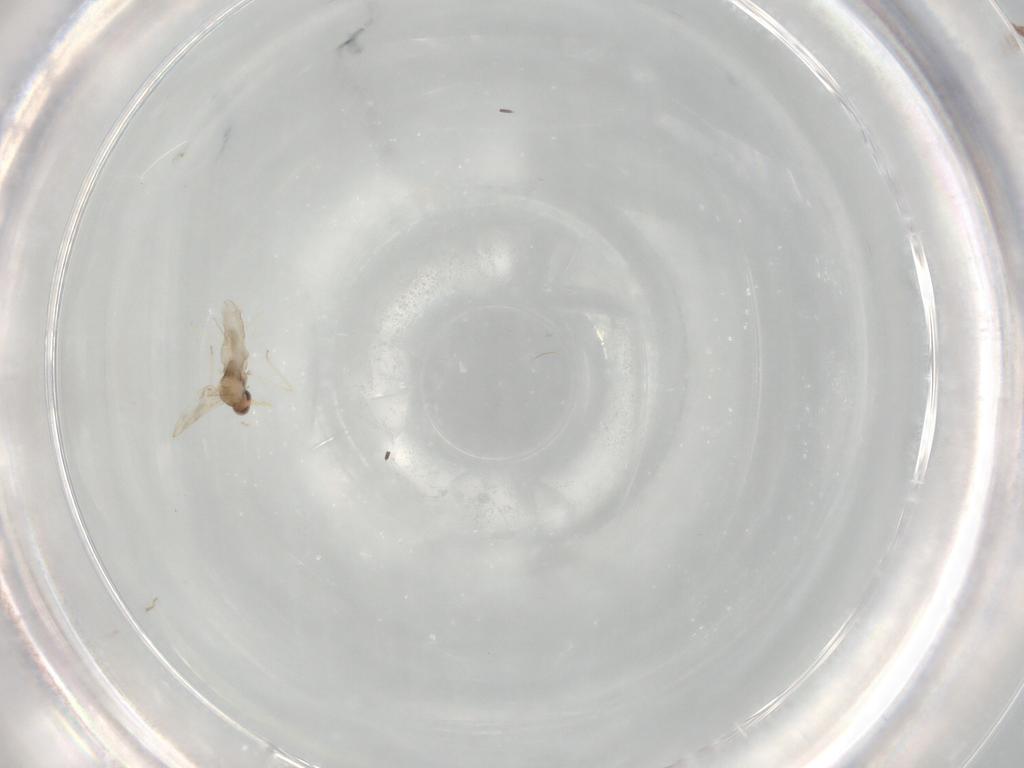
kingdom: Animalia
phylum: Arthropoda
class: Insecta
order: Diptera
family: Cecidomyiidae
